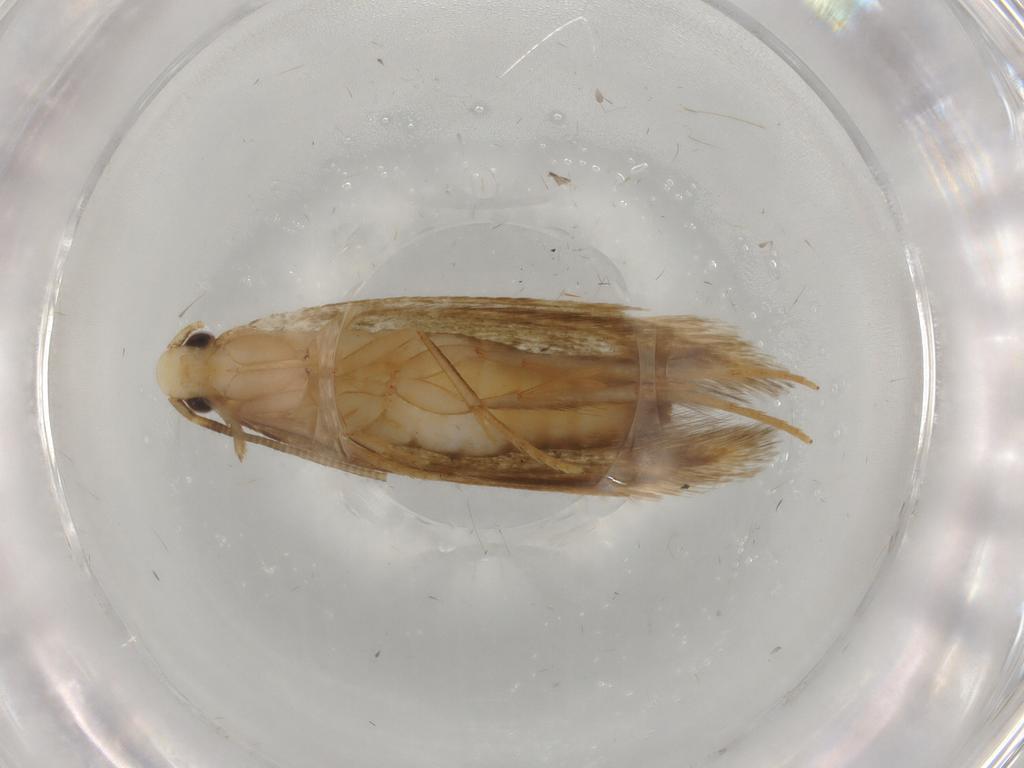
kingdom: Animalia
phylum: Arthropoda
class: Insecta
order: Lepidoptera
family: Tineidae
